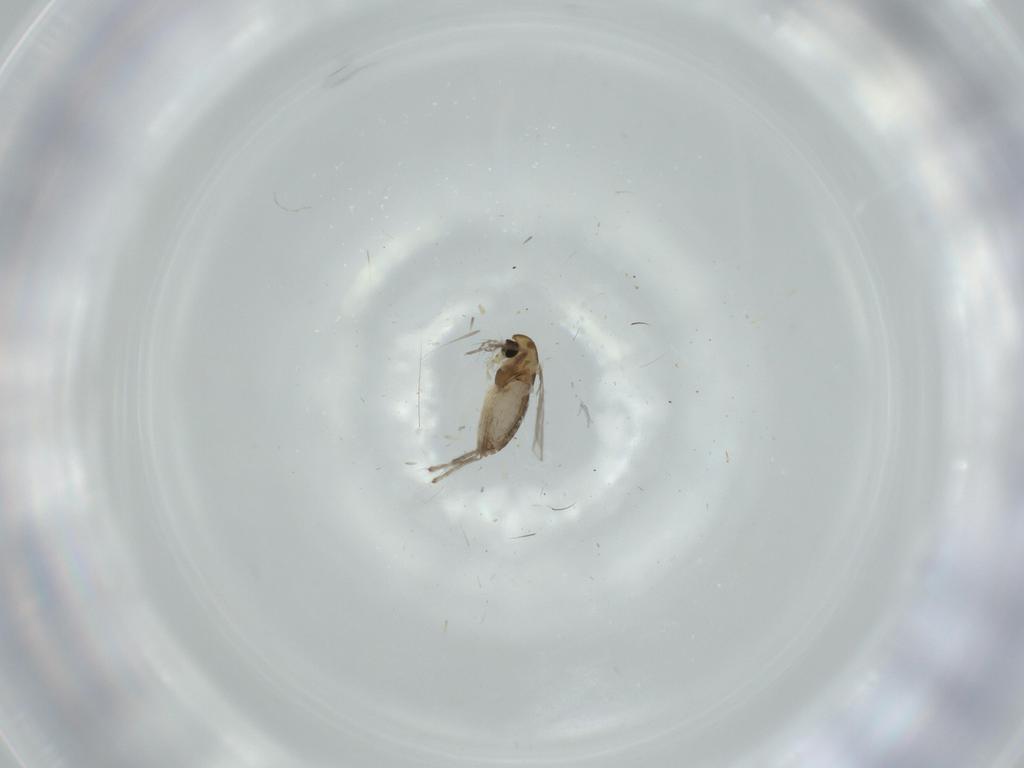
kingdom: Animalia
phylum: Arthropoda
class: Insecta
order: Diptera
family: Chironomidae
